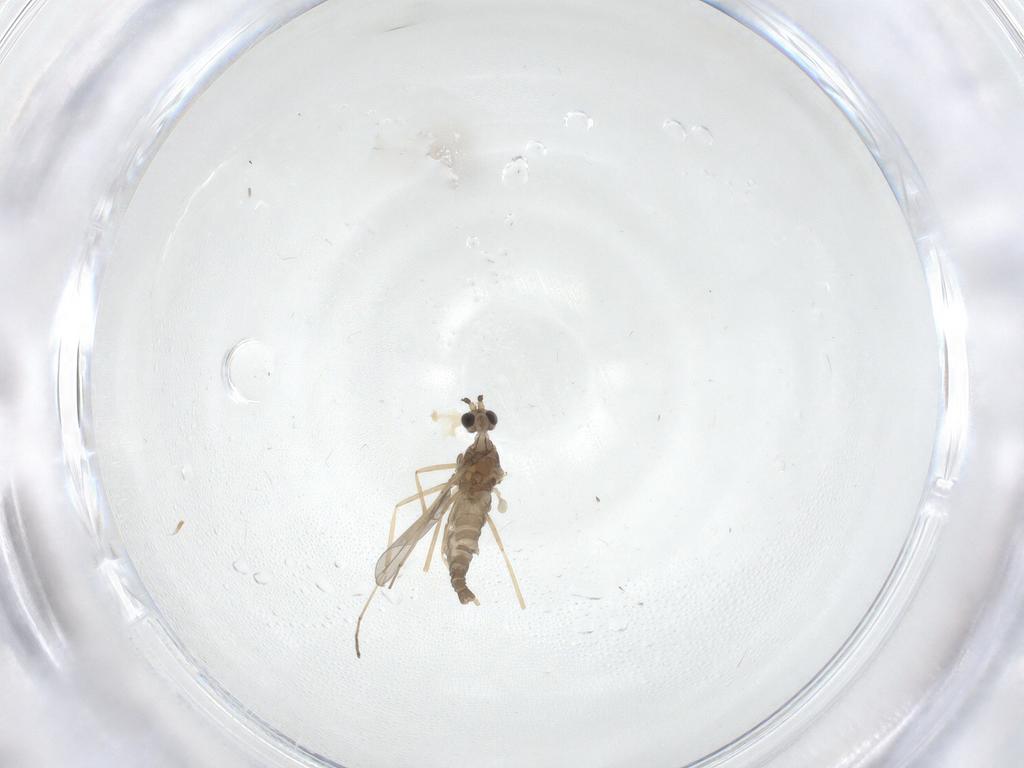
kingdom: Animalia
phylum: Arthropoda
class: Insecta
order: Diptera
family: Cecidomyiidae
